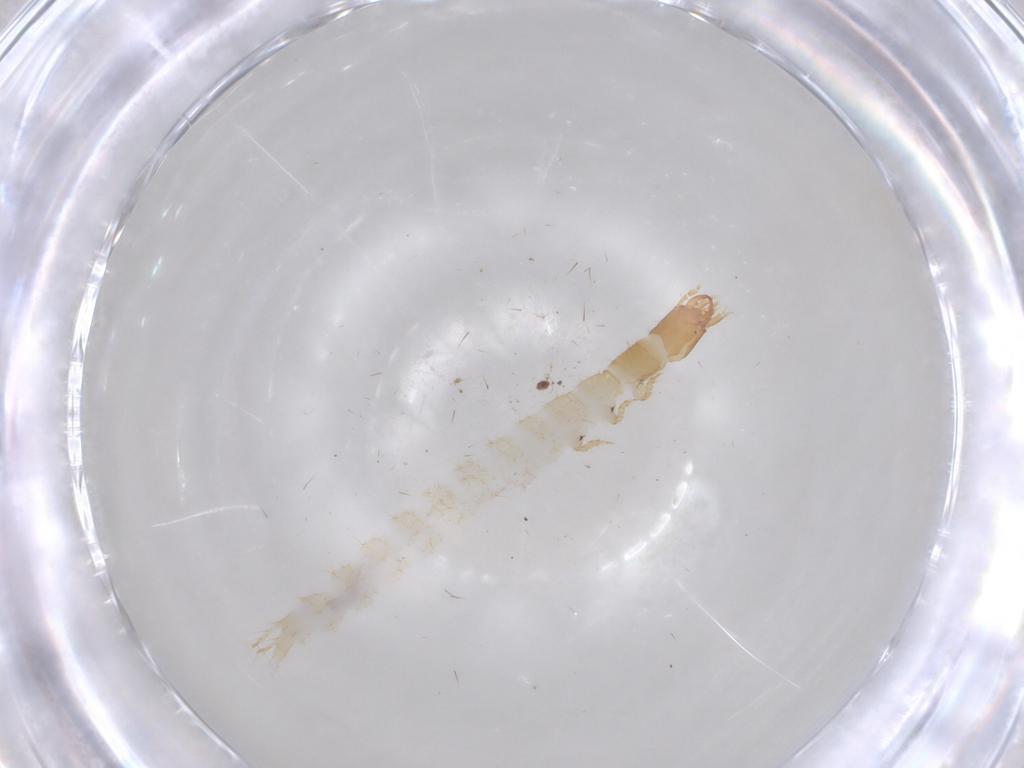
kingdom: Animalia
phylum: Arthropoda
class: Insecta
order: Coleoptera
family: Carabidae
